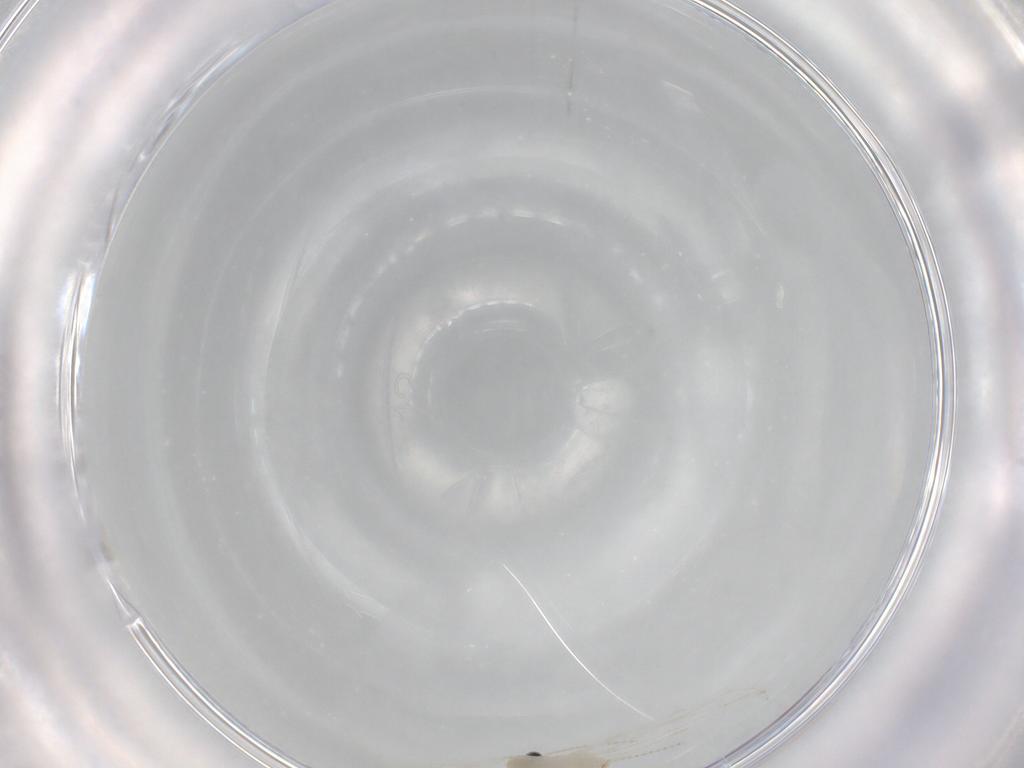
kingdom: Animalia
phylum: Arthropoda
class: Insecta
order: Diptera
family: Cecidomyiidae
